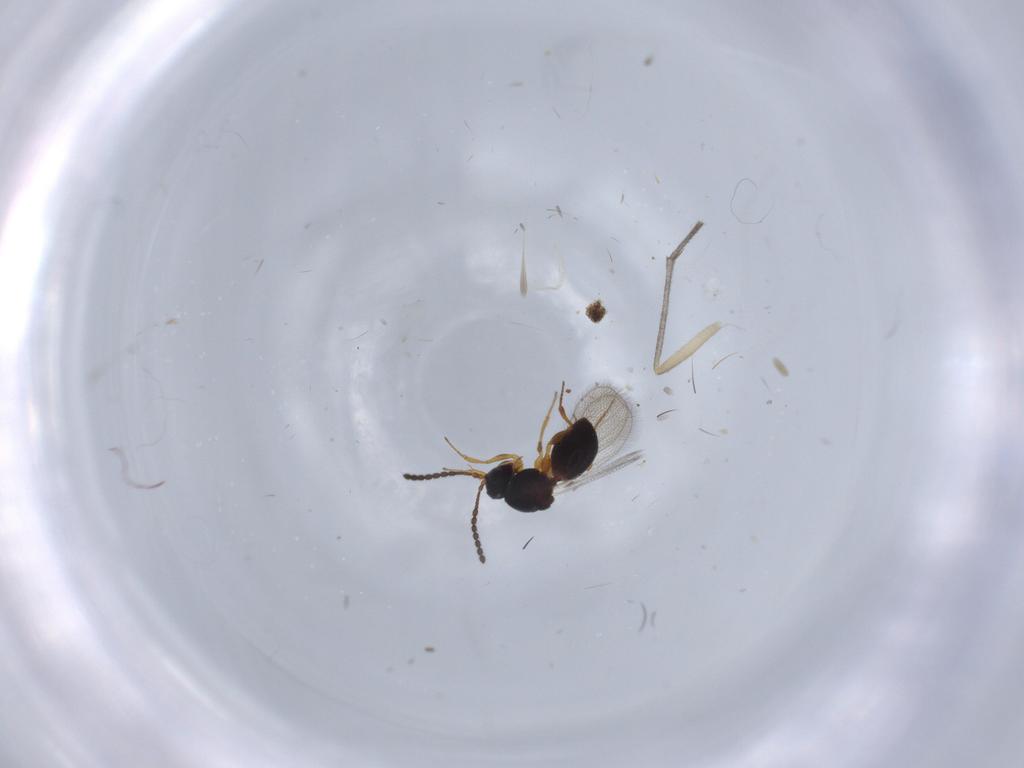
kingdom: Animalia
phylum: Arthropoda
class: Insecta
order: Hymenoptera
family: Figitidae
